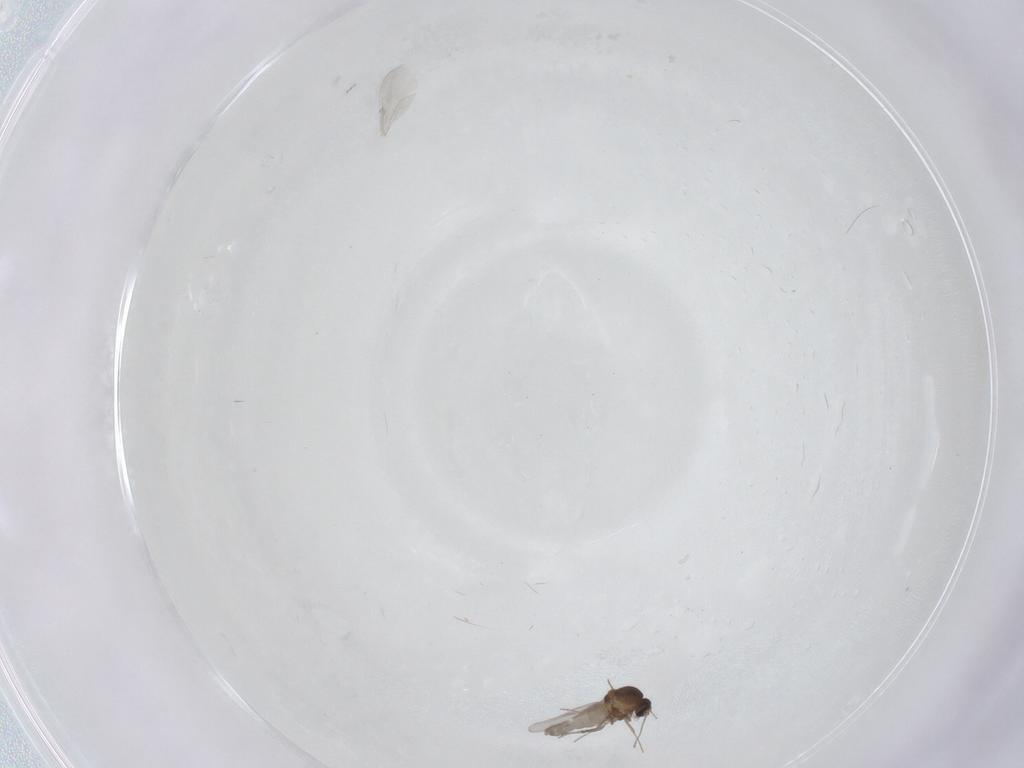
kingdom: Animalia
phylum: Arthropoda
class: Insecta
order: Diptera
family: Ceratopogonidae
